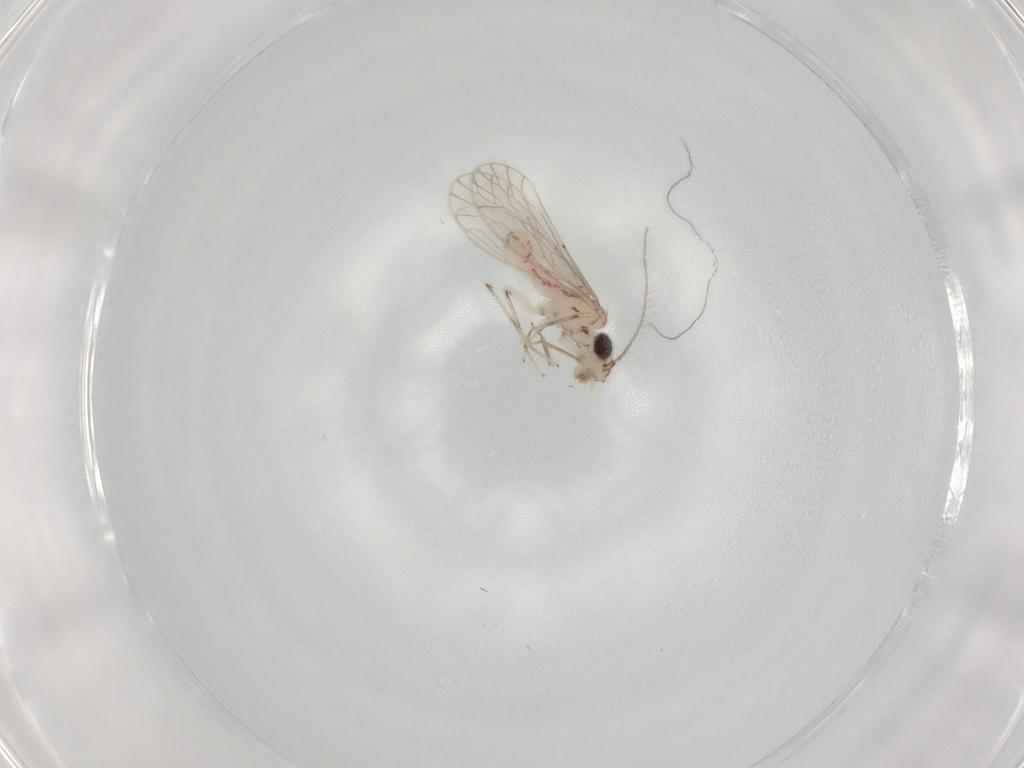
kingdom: Animalia
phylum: Arthropoda
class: Insecta
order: Psocodea
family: Caeciliusidae
